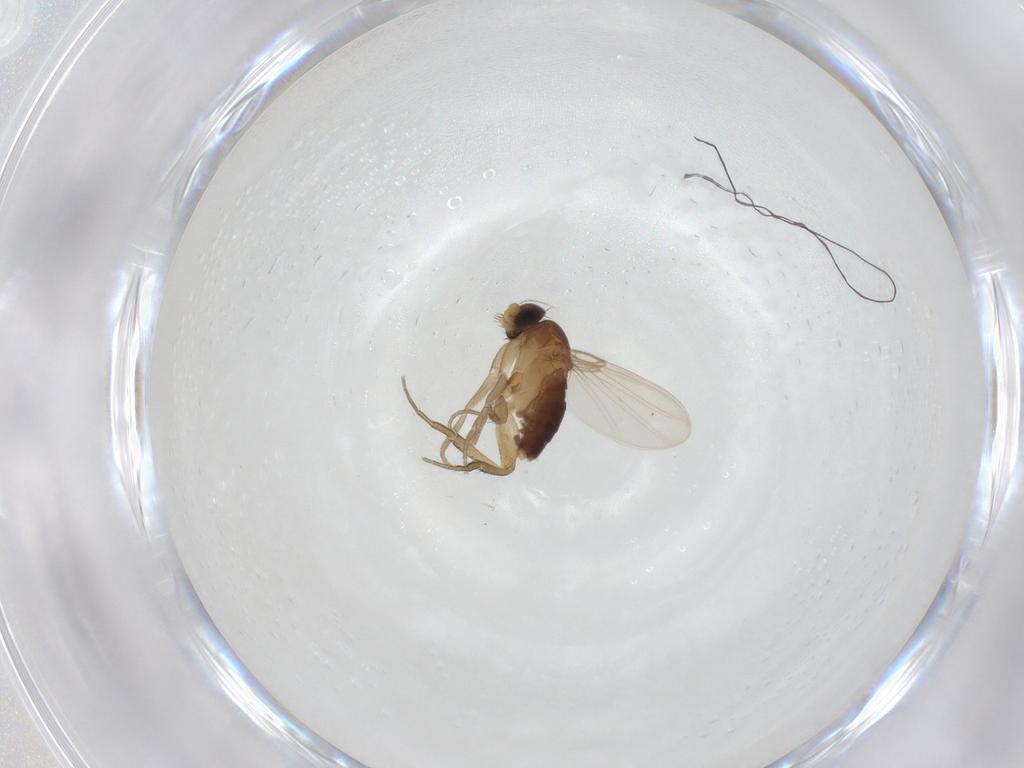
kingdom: Animalia
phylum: Arthropoda
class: Insecta
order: Diptera
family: Phoridae
